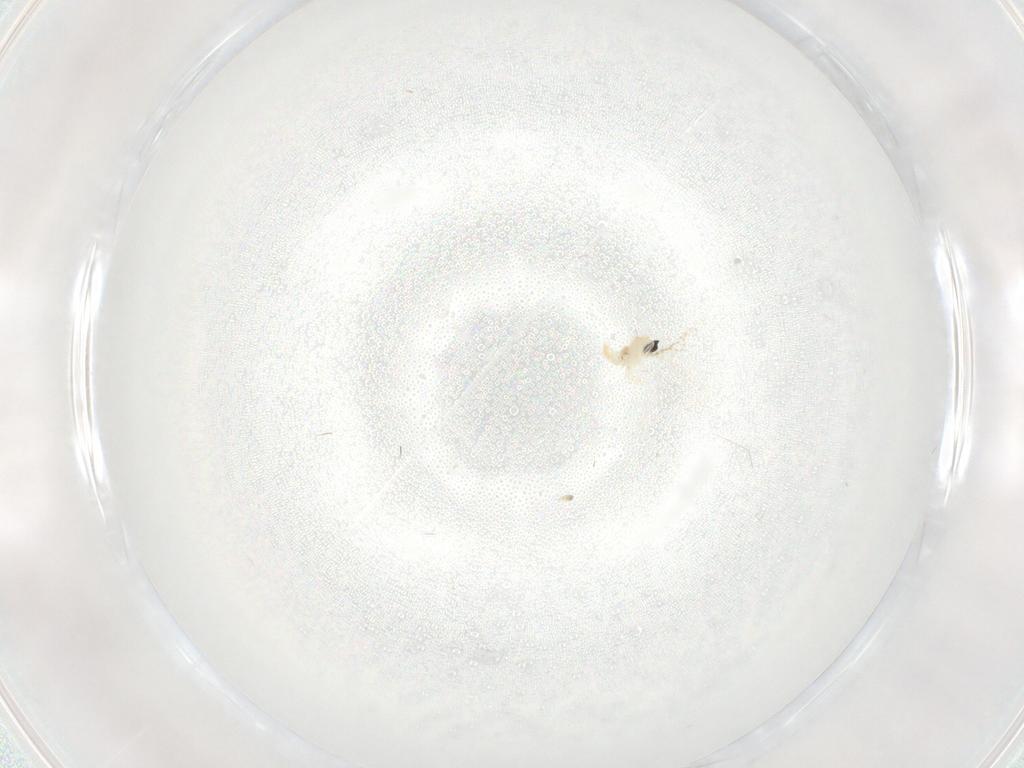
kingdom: Animalia
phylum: Arthropoda
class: Insecta
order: Diptera
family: Cecidomyiidae
